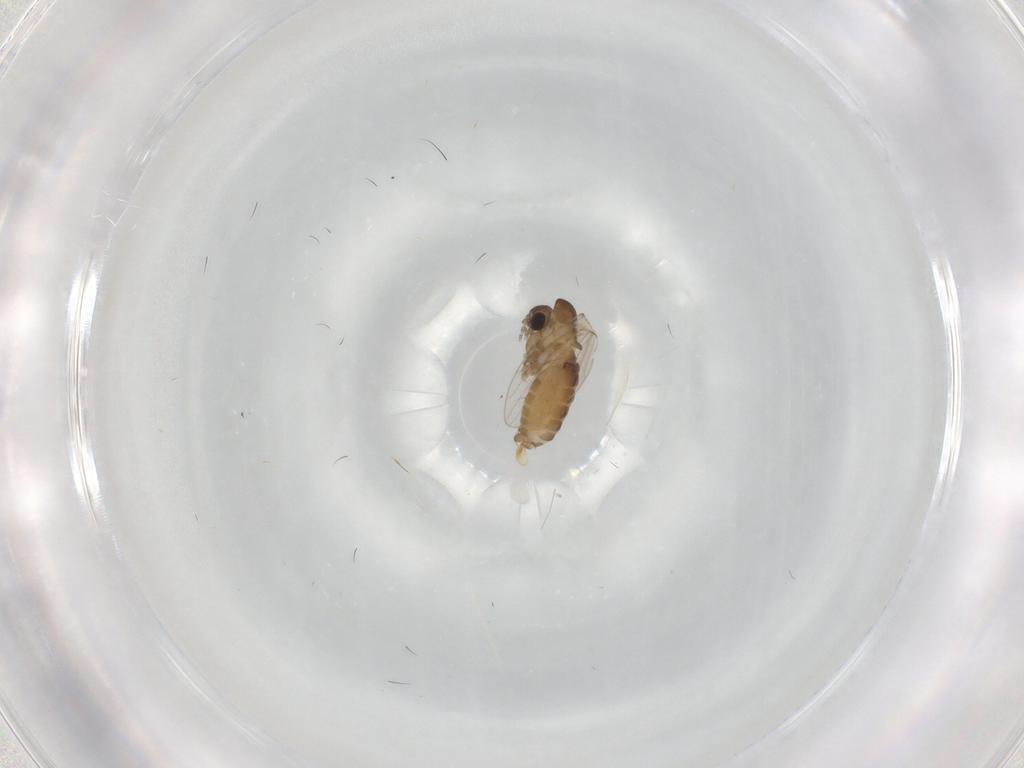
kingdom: Animalia
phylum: Arthropoda
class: Insecta
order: Diptera
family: Psychodidae
